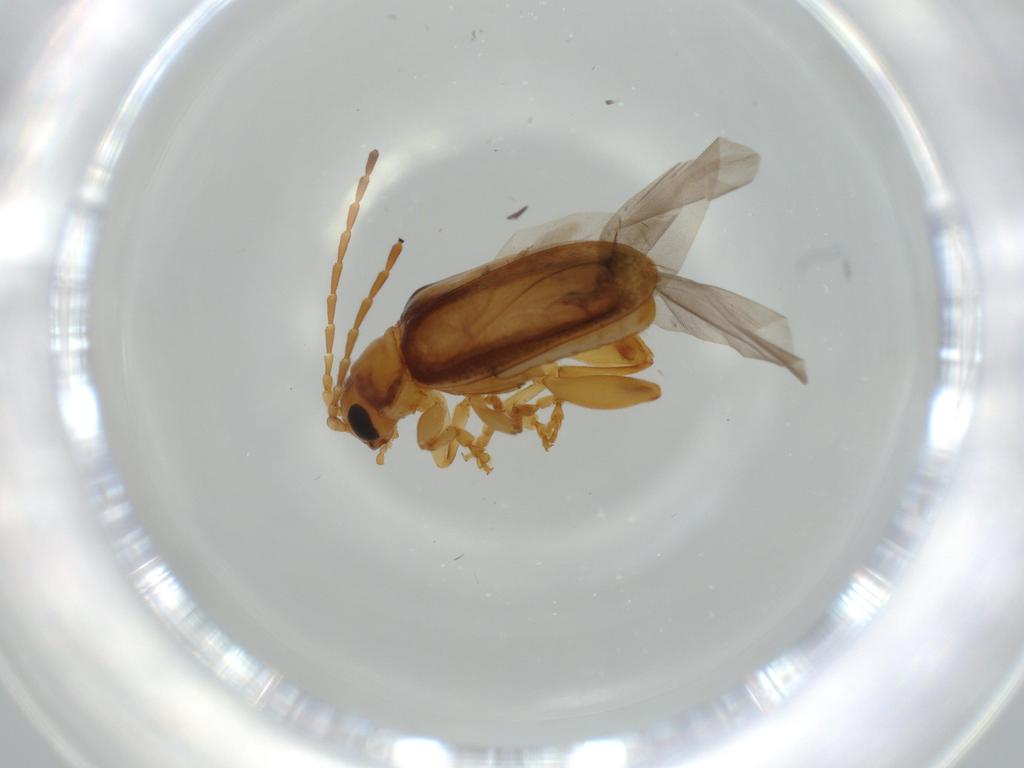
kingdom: Animalia
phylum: Arthropoda
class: Insecta
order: Coleoptera
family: Chrysomelidae
